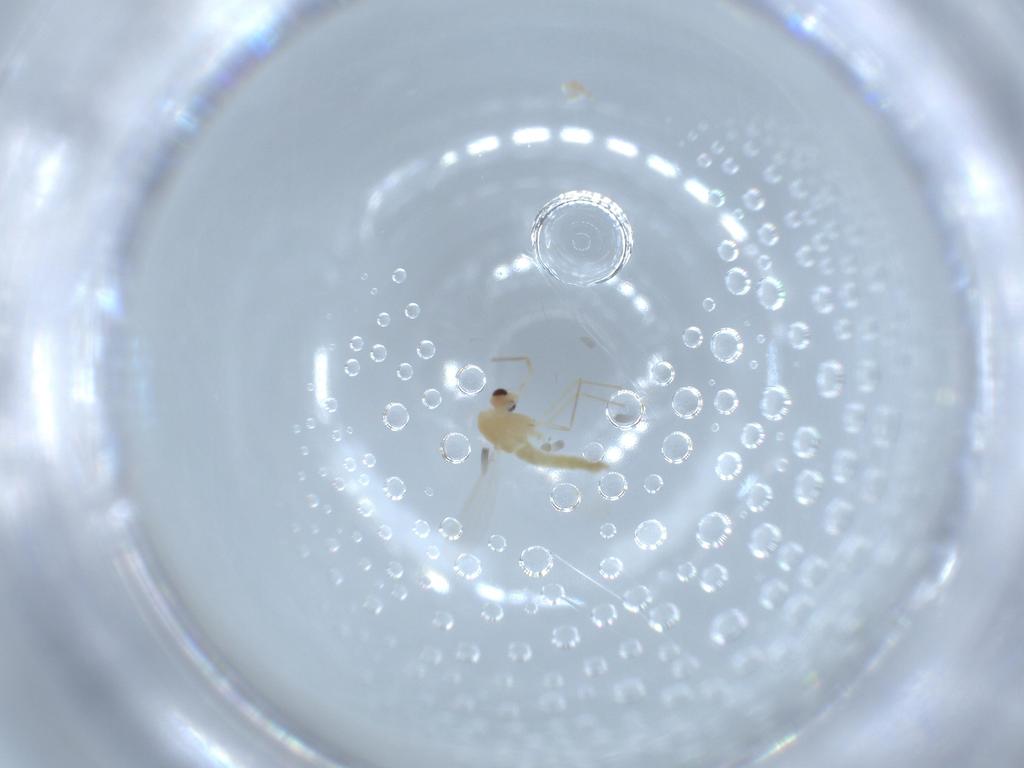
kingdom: Animalia
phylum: Arthropoda
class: Insecta
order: Diptera
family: Chironomidae
